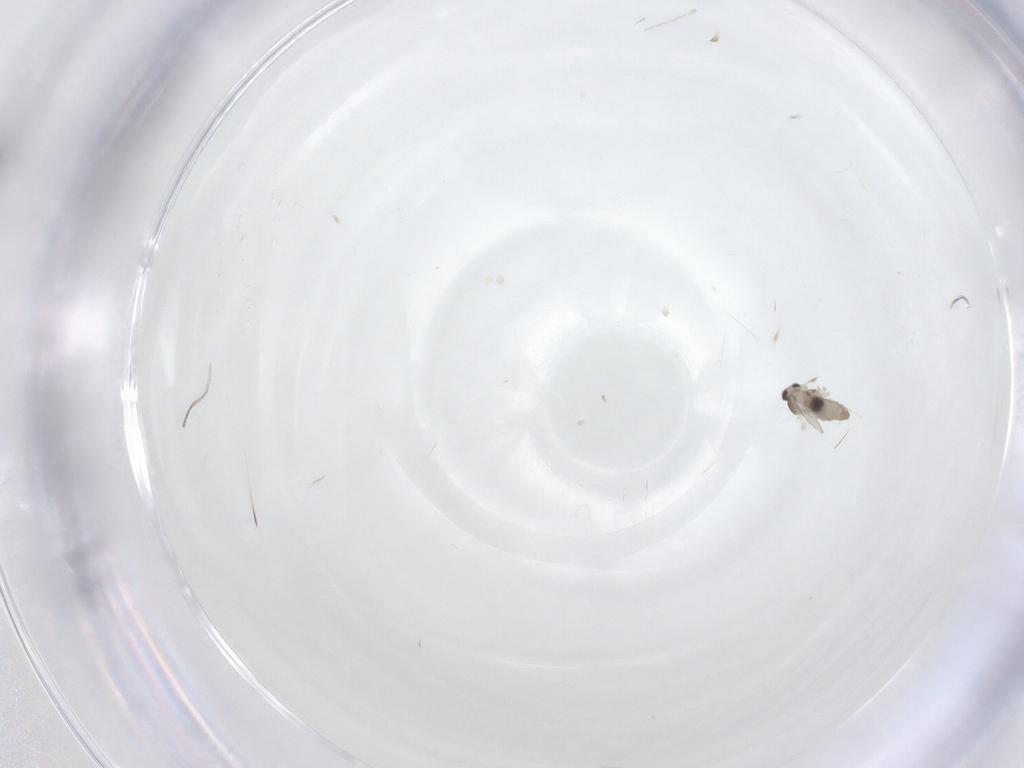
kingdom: Animalia
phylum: Arthropoda
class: Insecta
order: Diptera
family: Psychodidae
